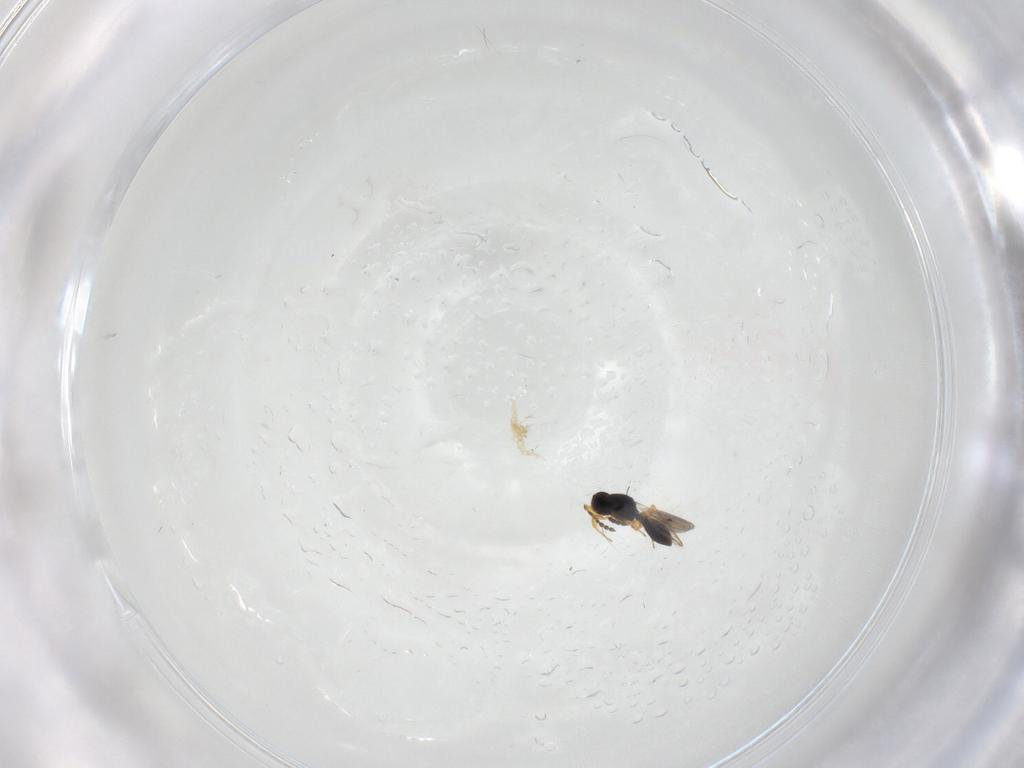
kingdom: Animalia
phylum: Arthropoda
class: Insecta
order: Hymenoptera
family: Platygastridae
